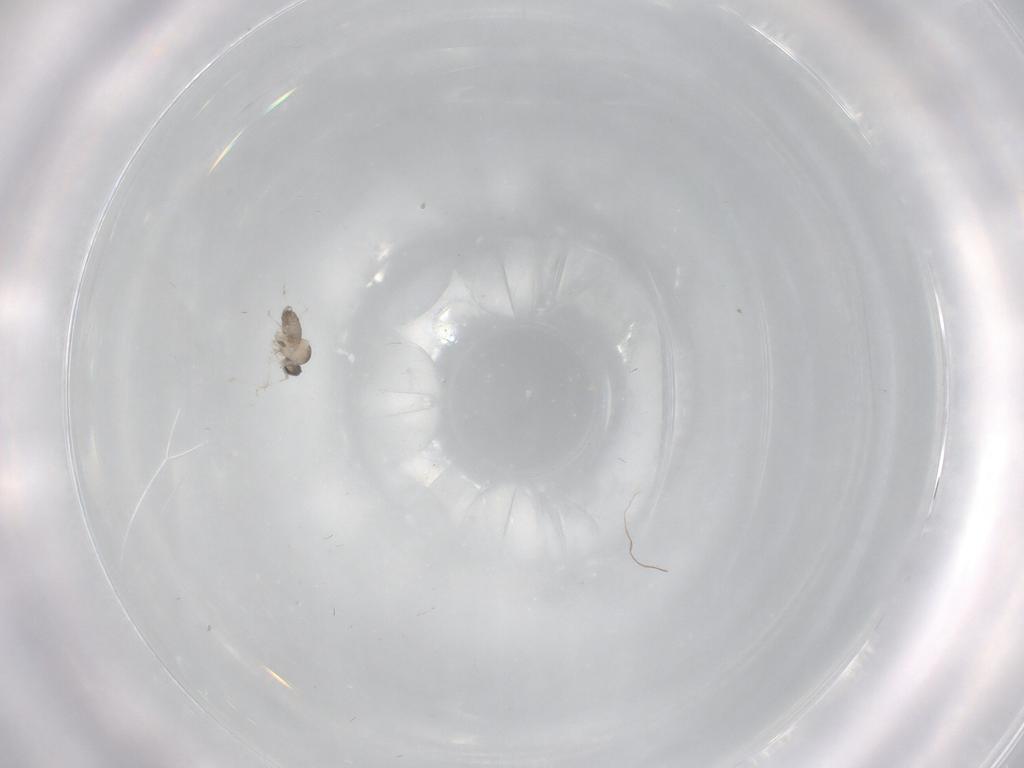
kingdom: Animalia
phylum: Arthropoda
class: Insecta
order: Diptera
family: Cecidomyiidae
